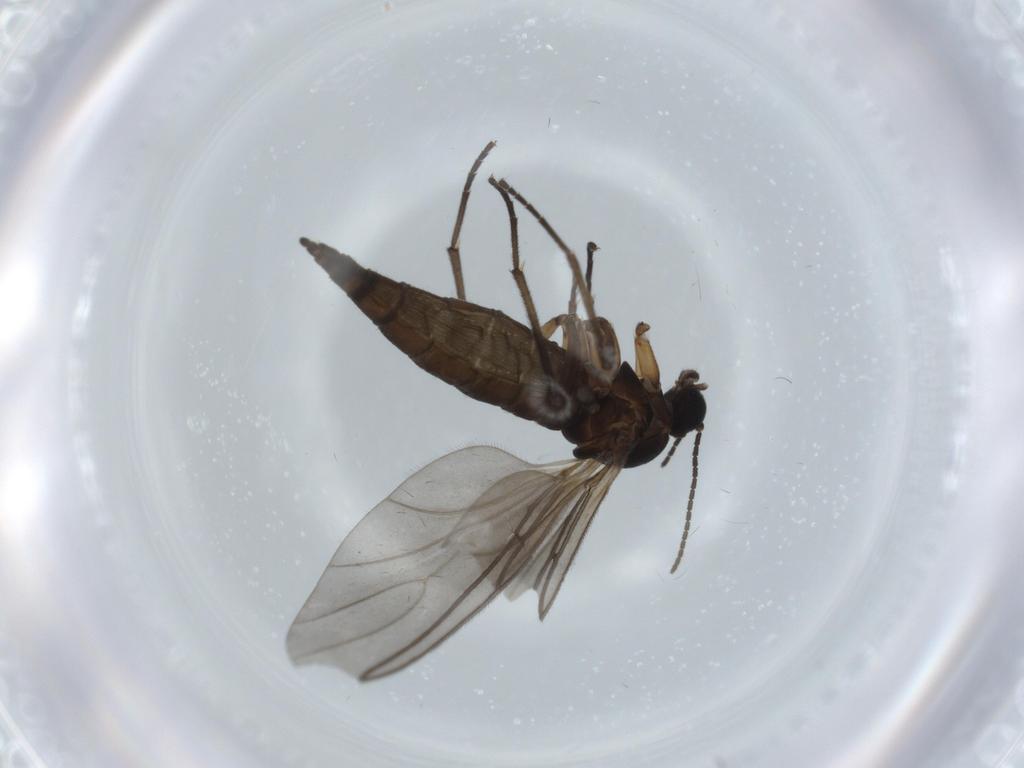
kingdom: Animalia
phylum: Arthropoda
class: Insecta
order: Diptera
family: Sciaridae
